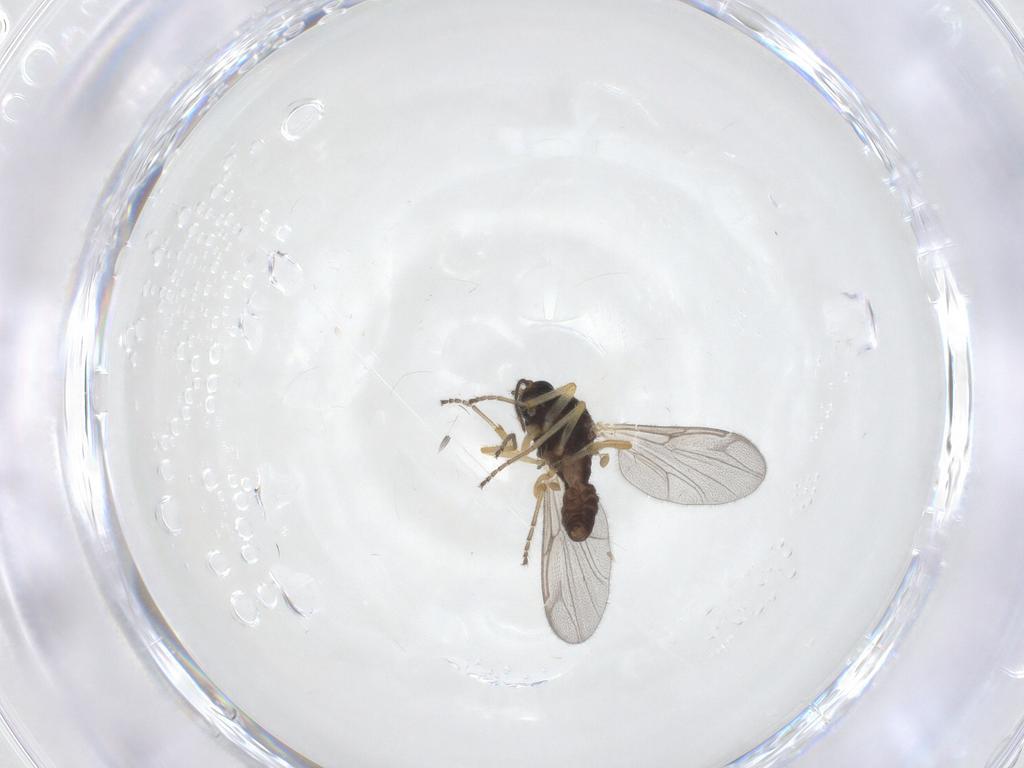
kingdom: Animalia
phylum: Arthropoda
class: Insecta
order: Diptera
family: Ceratopogonidae
